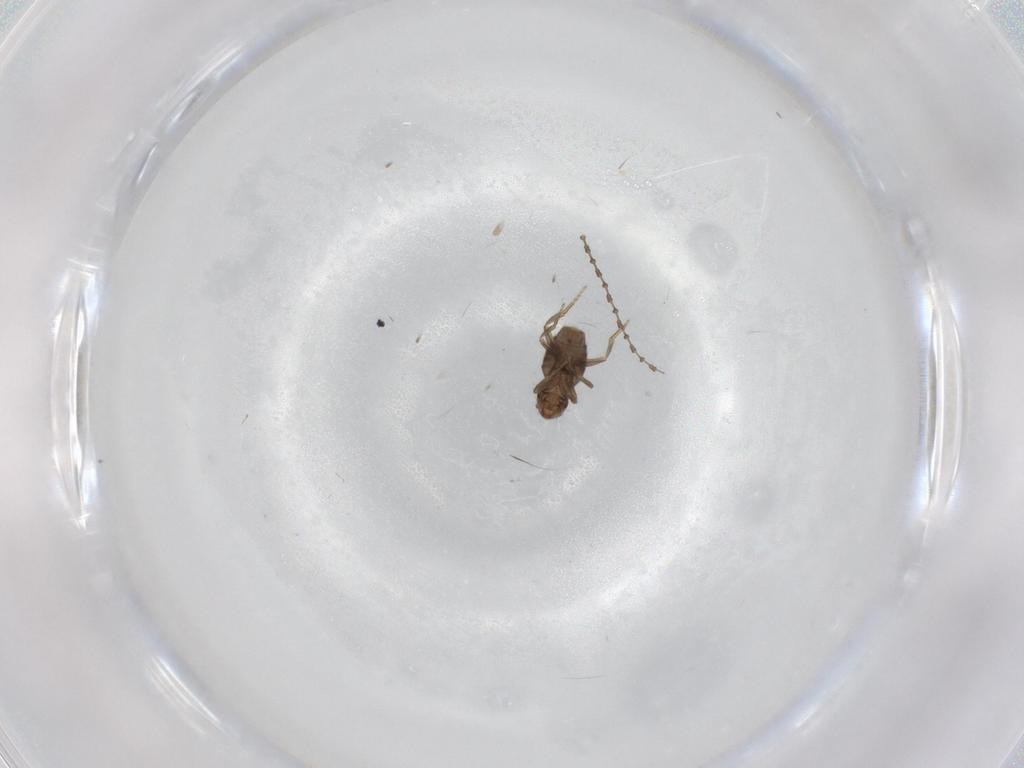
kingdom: Animalia
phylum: Arthropoda
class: Insecta
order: Diptera
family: Cecidomyiidae
